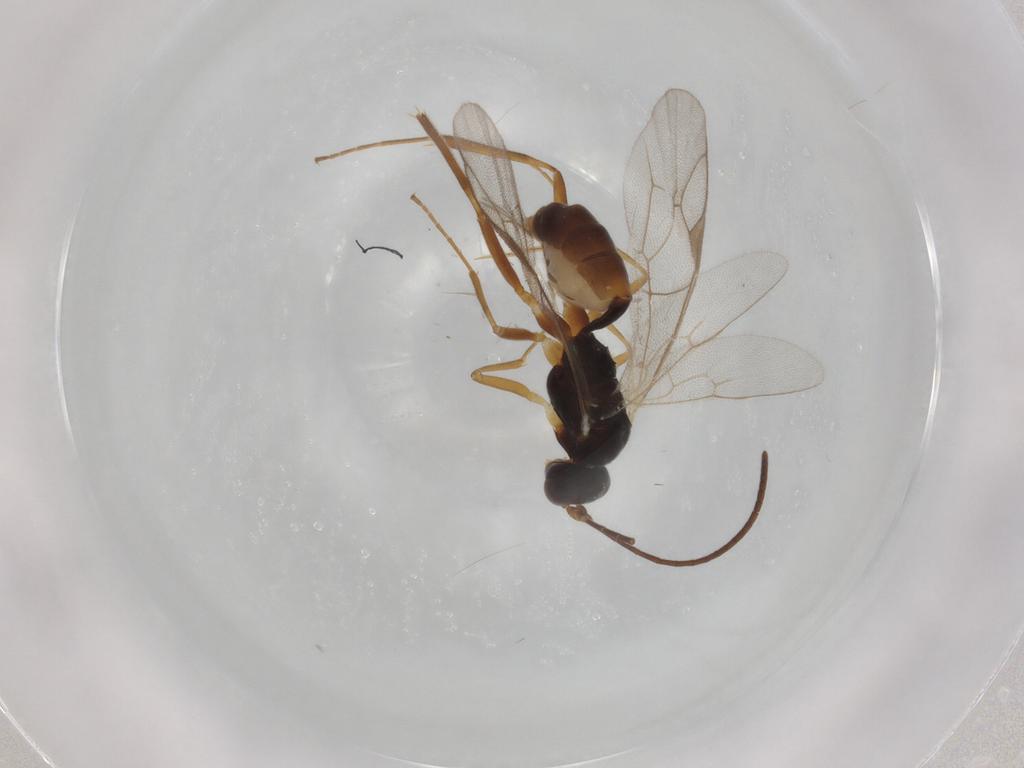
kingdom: Animalia
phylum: Arthropoda
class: Insecta
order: Hymenoptera
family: Ichneumonidae
